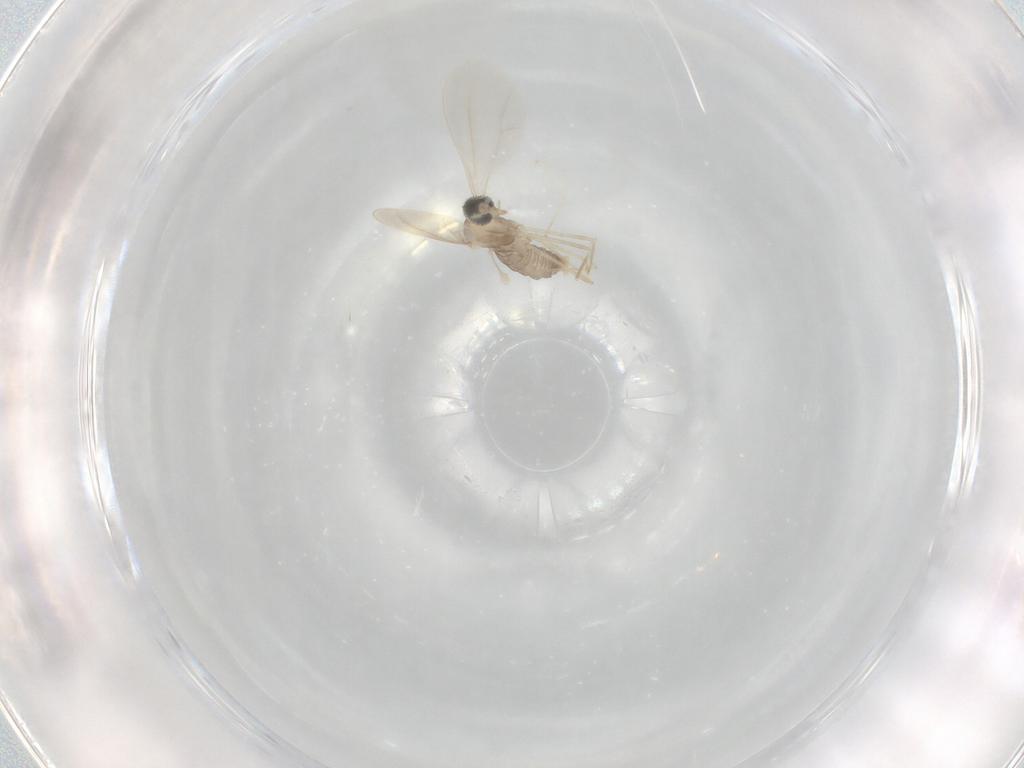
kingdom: Animalia
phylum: Arthropoda
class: Insecta
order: Diptera
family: Cecidomyiidae
